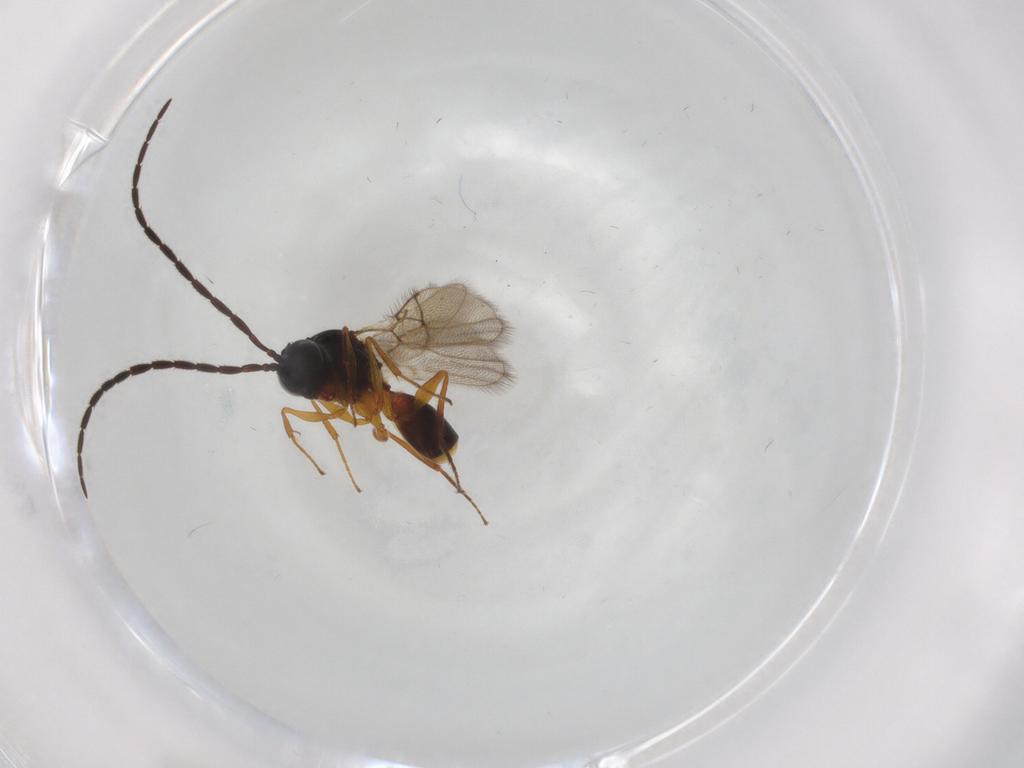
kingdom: Animalia
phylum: Arthropoda
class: Insecta
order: Hymenoptera
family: Figitidae
